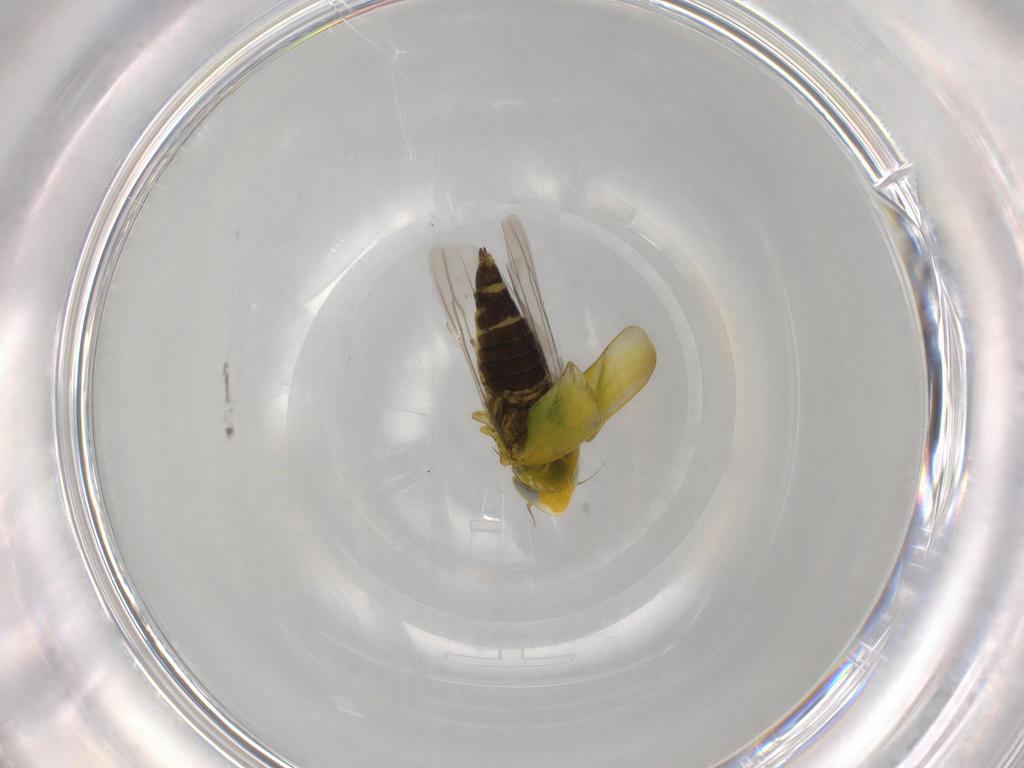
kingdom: Animalia
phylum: Arthropoda
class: Insecta
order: Hemiptera
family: Cicadellidae
